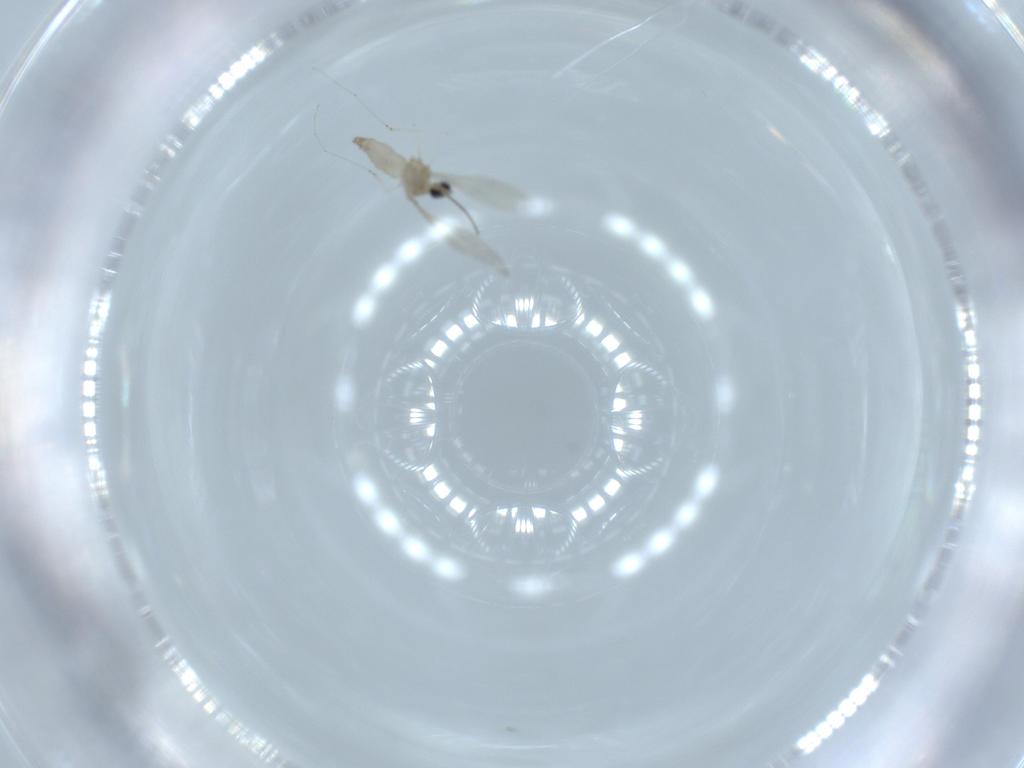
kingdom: Animalia
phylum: Arthropoda
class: Insecta
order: Diptera
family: Cecidomyiidae
